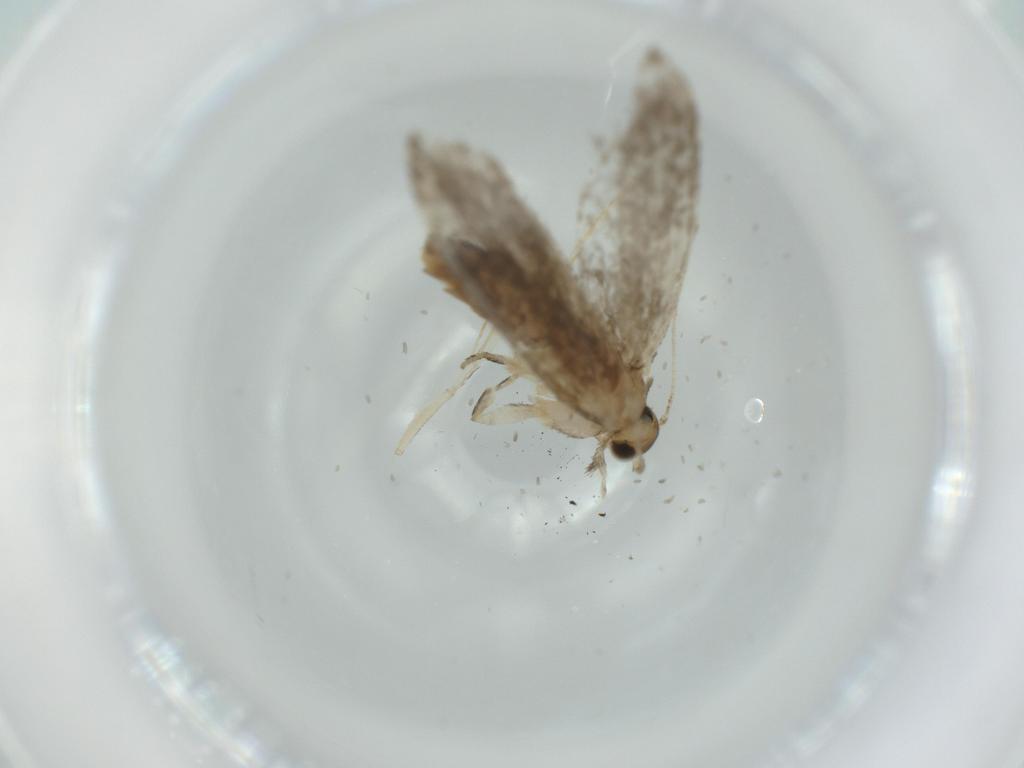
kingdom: Animalia
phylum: Arthropoda
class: Insecta
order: Lepidoptera
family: Tineidae
